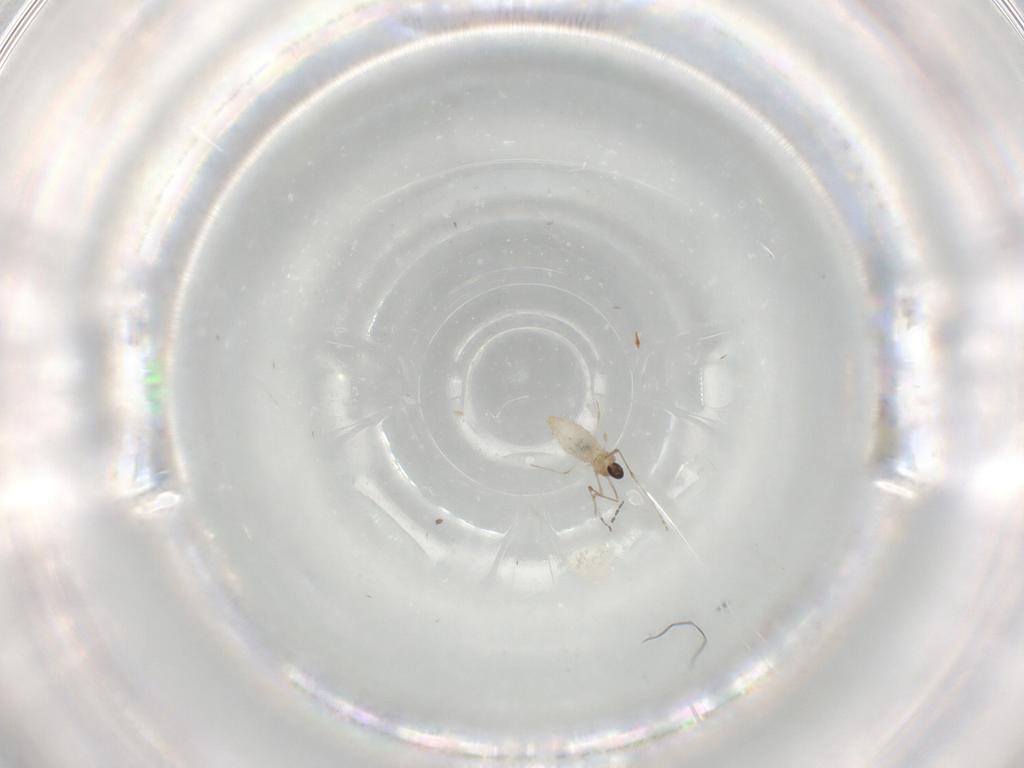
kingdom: Animalia
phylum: Arthropoda
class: Insecta
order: Diptera
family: Cecidomyiidae
